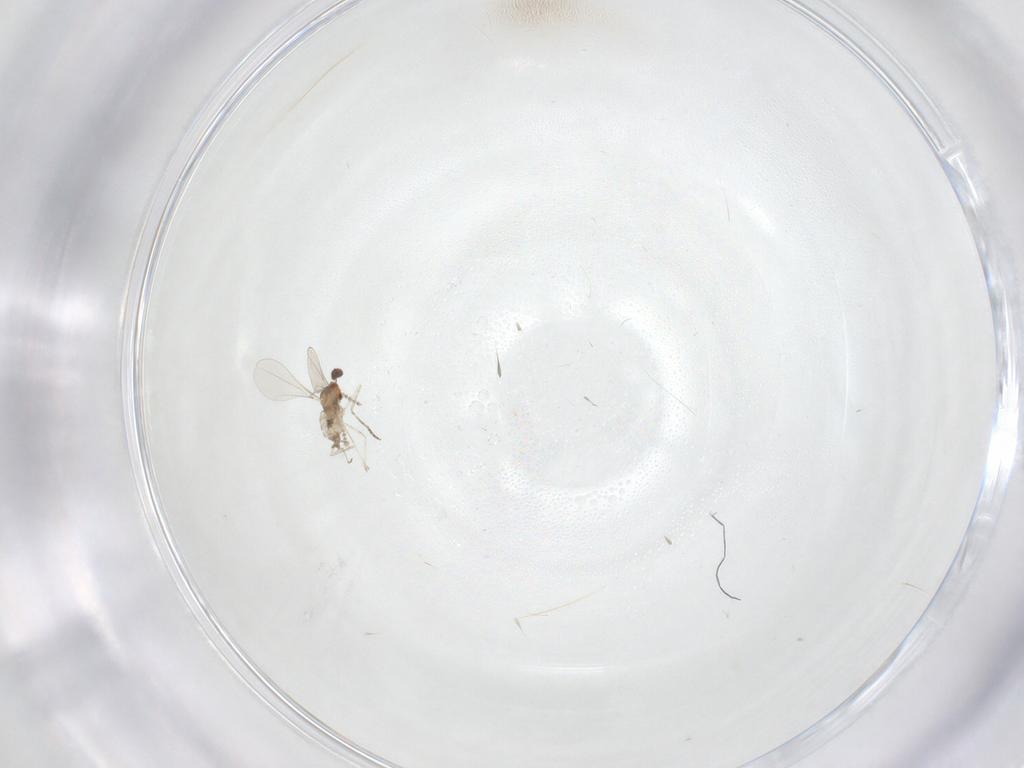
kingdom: Animalia
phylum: Arthropoda
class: Insecta
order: Diptera
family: Cecidomyiidae
